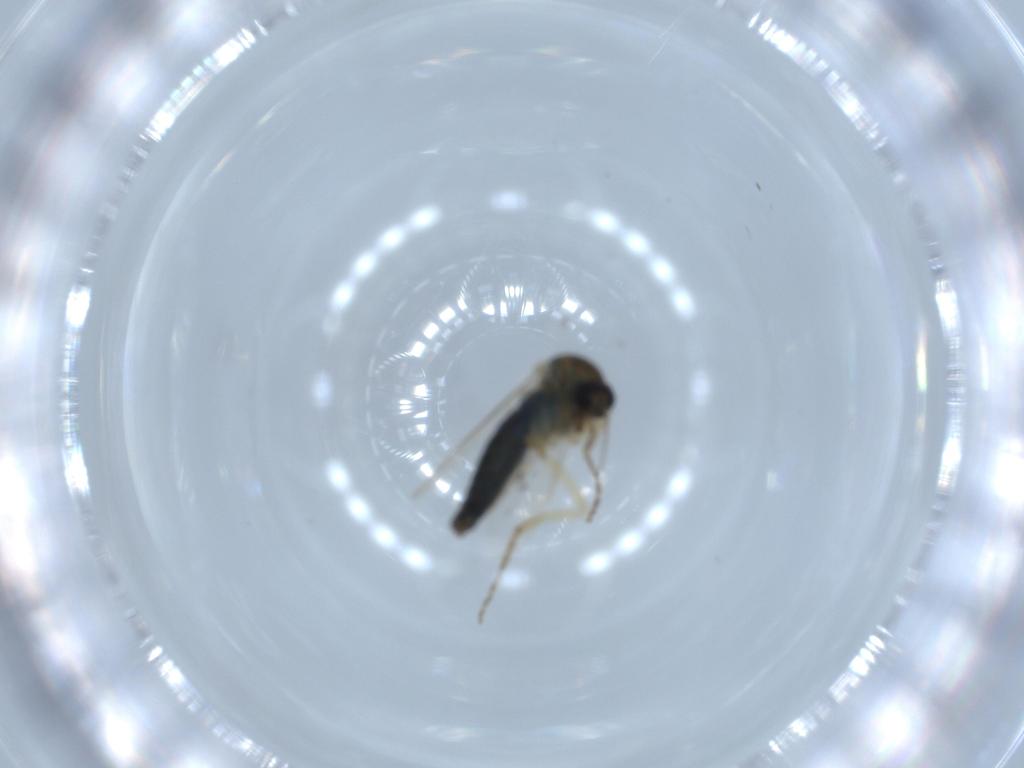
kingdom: Animalia
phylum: Arthropoda
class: Insecta
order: Diptera
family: Ceratopogonidae
